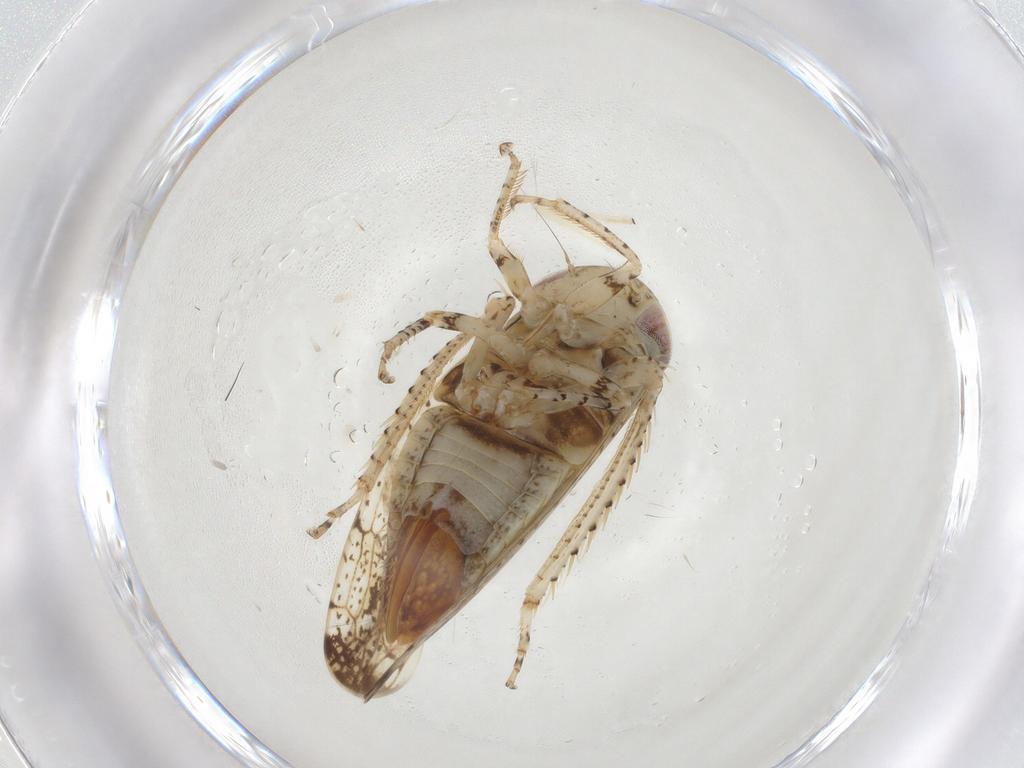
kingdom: Animalia
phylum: Arthropoda
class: Insecta
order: Hemiptera
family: Cicadellidae
